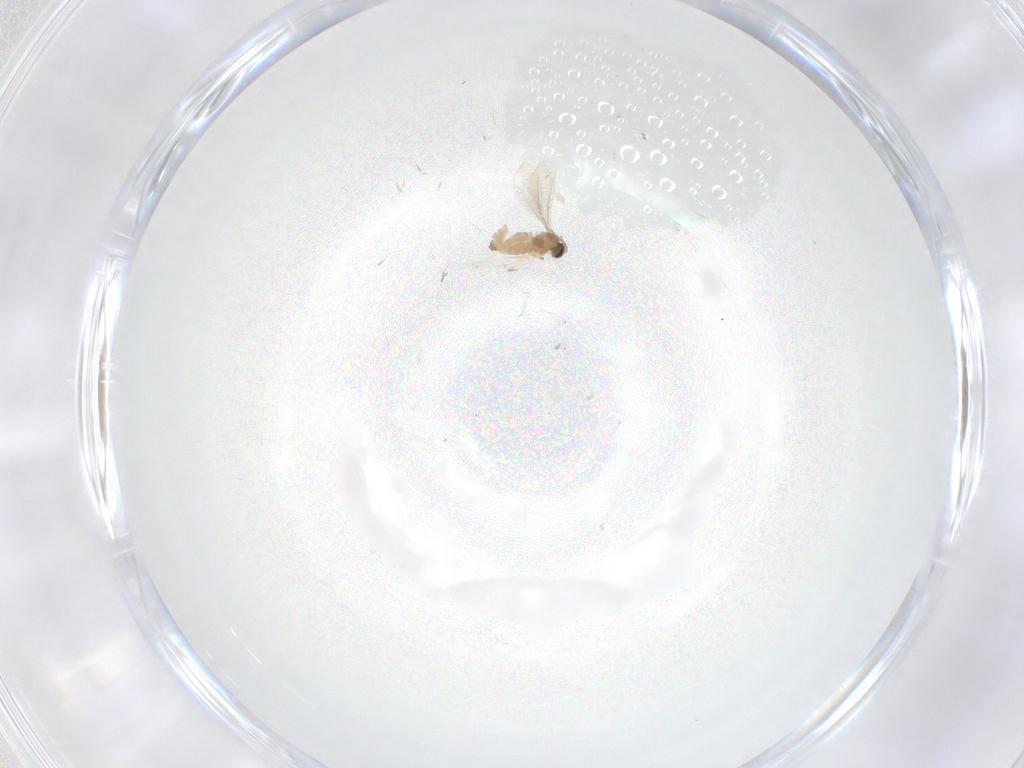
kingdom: Animalia
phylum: Arthropoda
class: Insecta
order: Diptera
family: Cecidomyiidae
